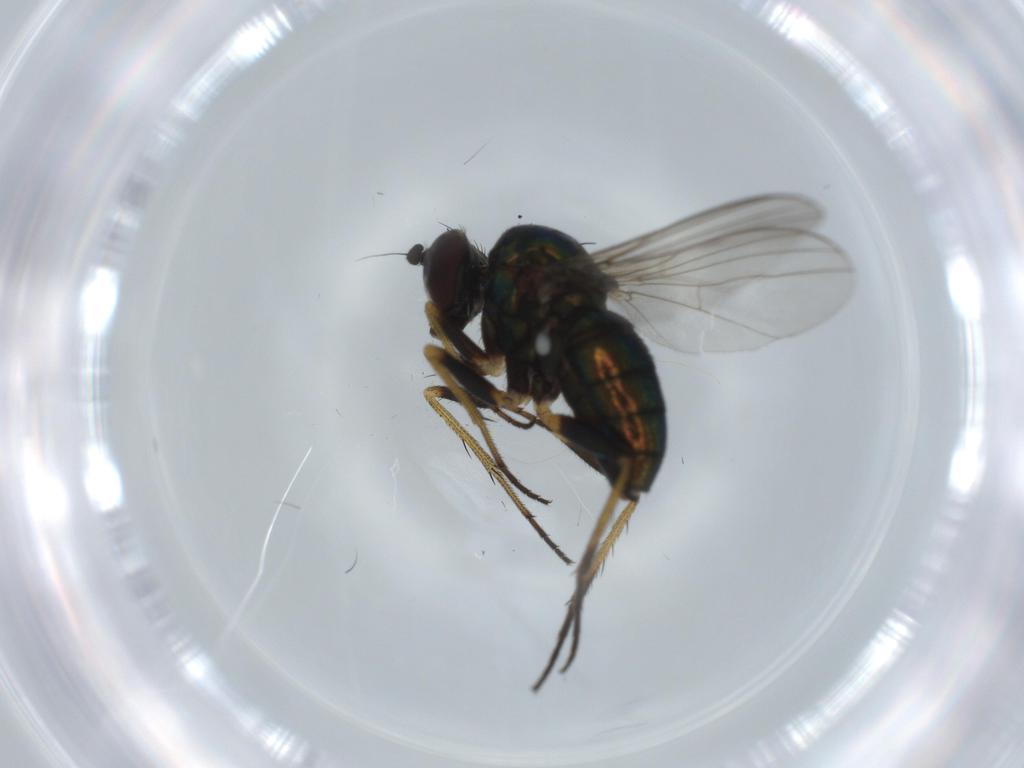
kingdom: Animalia
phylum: Arthropoda
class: Insecta
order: Diptera
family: Dolichopodidae
